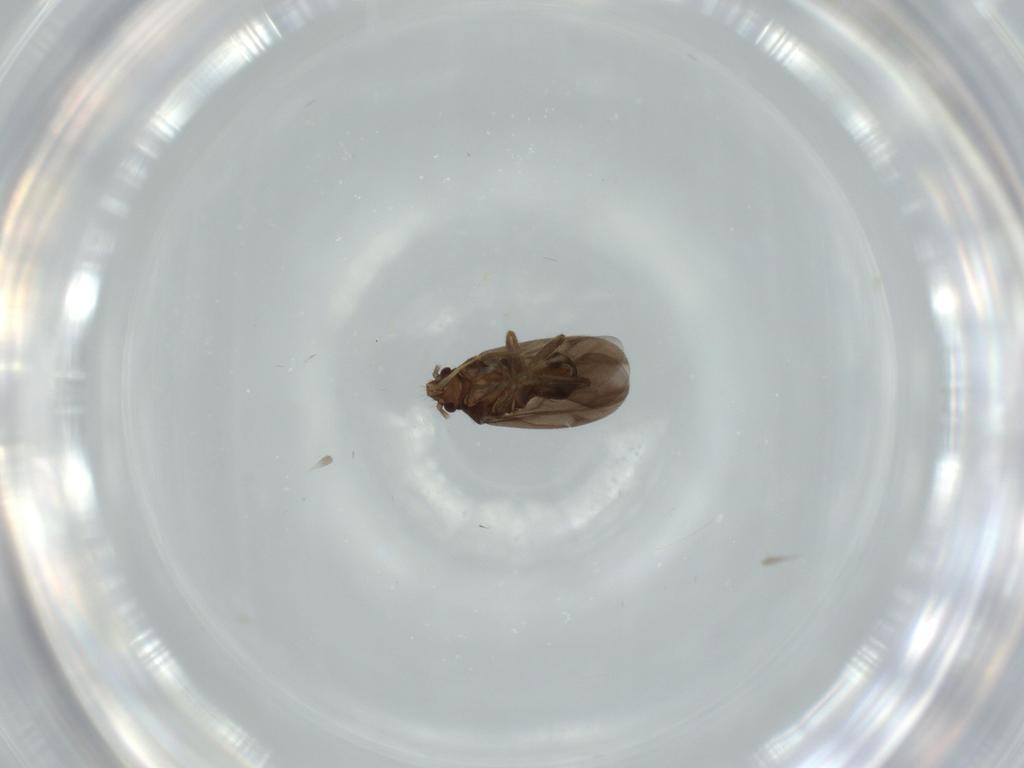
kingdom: Animalia
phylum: Arthropoda
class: Insecta
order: Hemiptera
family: Ceratocombidae
